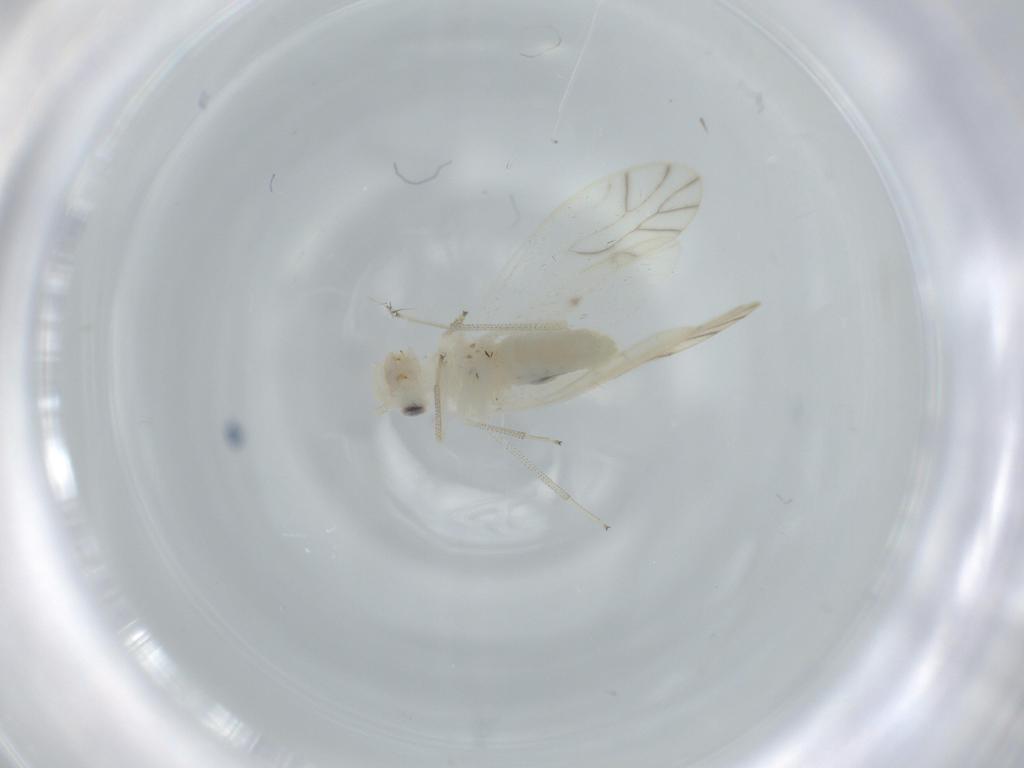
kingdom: Animalia
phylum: Arthropoda
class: Insecta
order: Psocodea
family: Caeciliusidae
